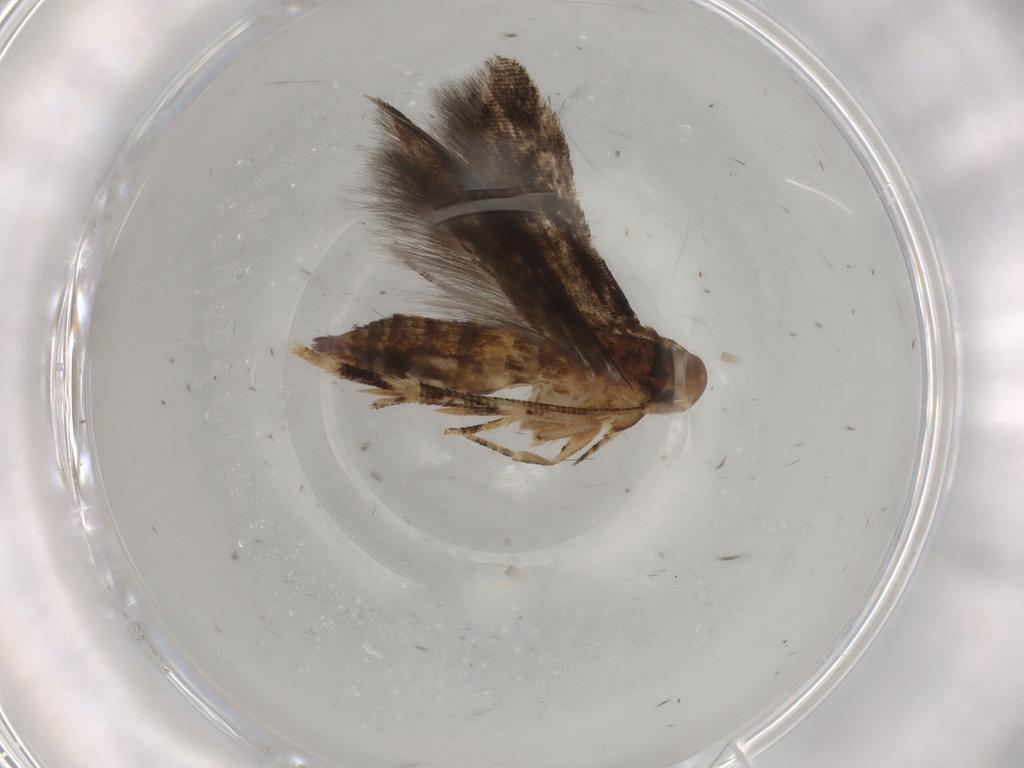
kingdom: Animalia
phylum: Arthropoda
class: Insecta
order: Lepidoptera
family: Momphidae
